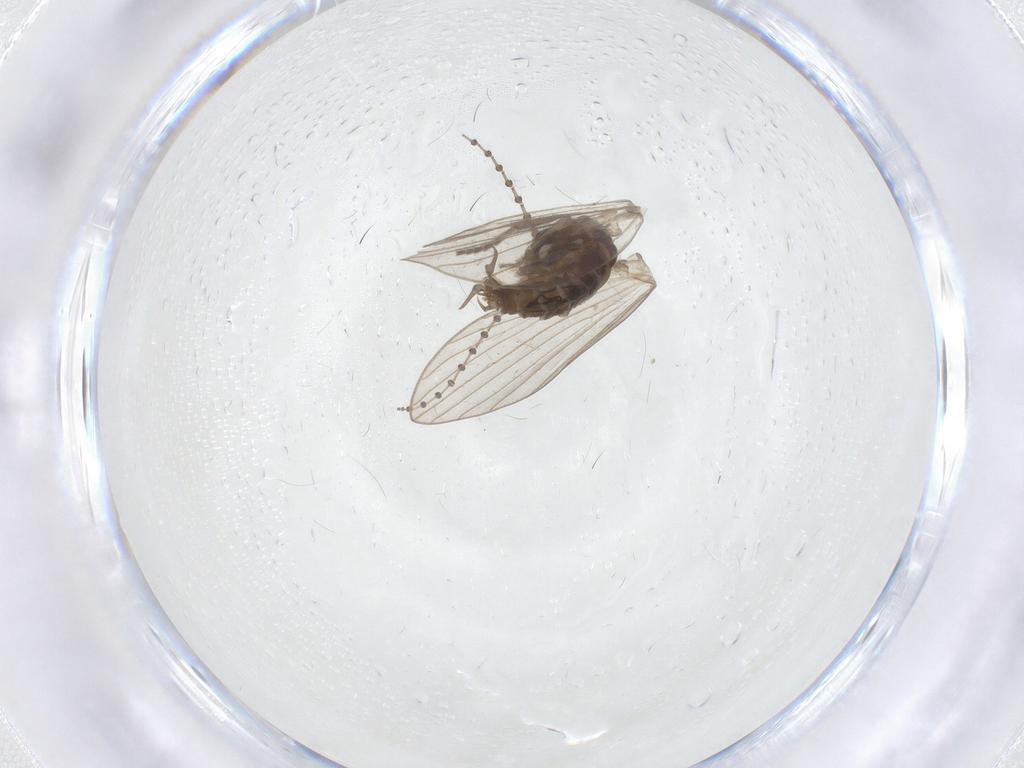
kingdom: Animalia
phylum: Arthropoda
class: Insecta
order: Diptera
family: Psychodidae
